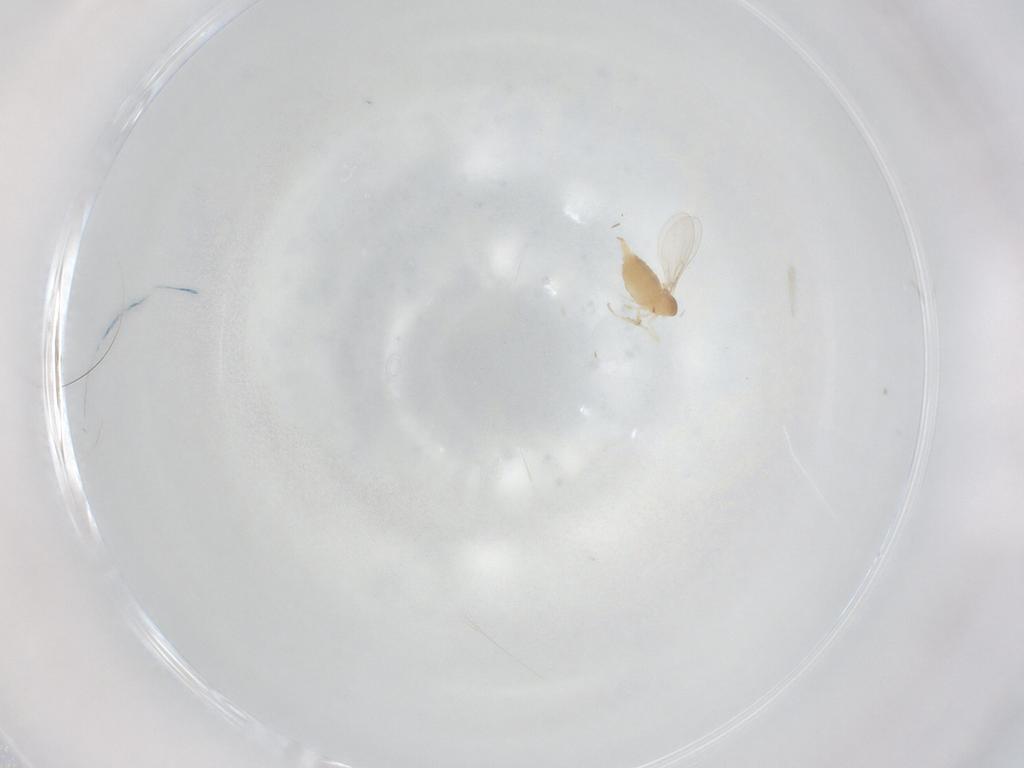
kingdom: Animalia
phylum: Arthropoda
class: Insecta
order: Diptera
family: Cecidomyiidae
